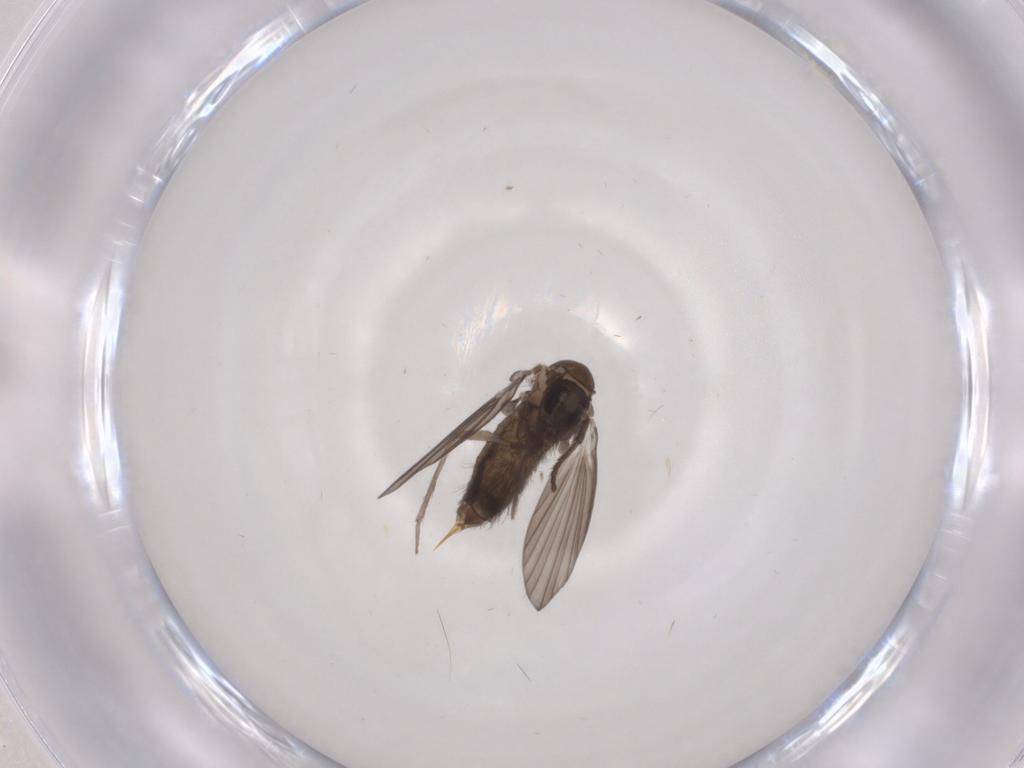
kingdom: Animalia
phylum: Arthropoda
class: Insecta
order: Diptera
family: Psychodidae
